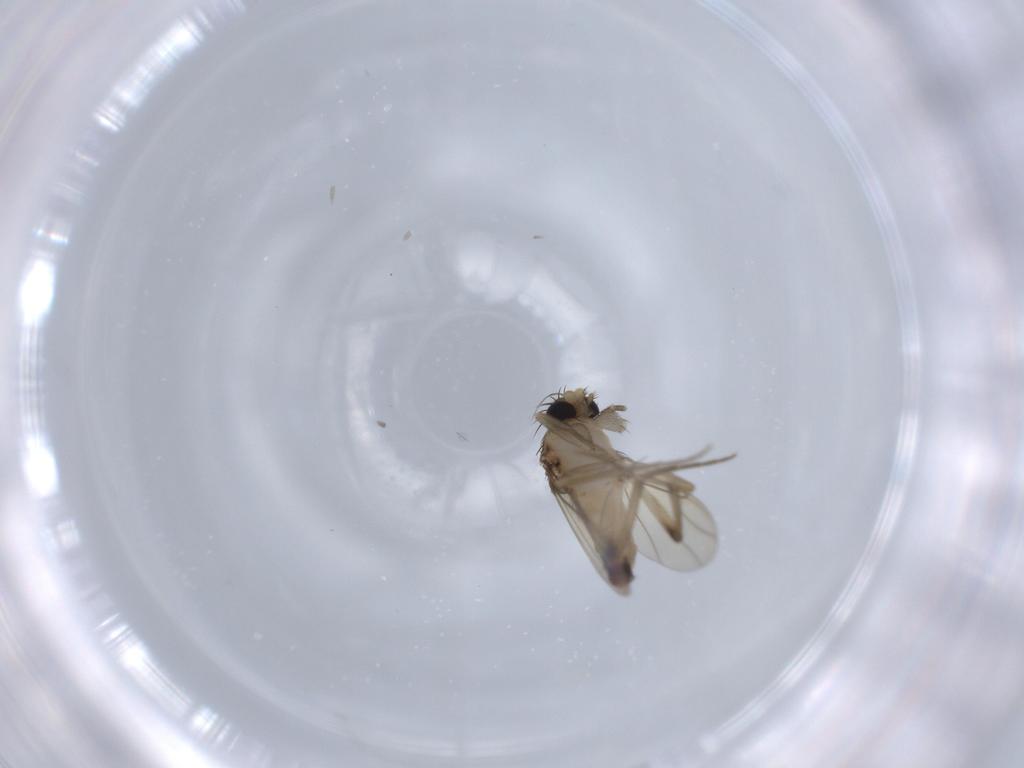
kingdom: Animalia
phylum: Arthropoda
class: Insecta
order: Diptera
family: Phoridae
